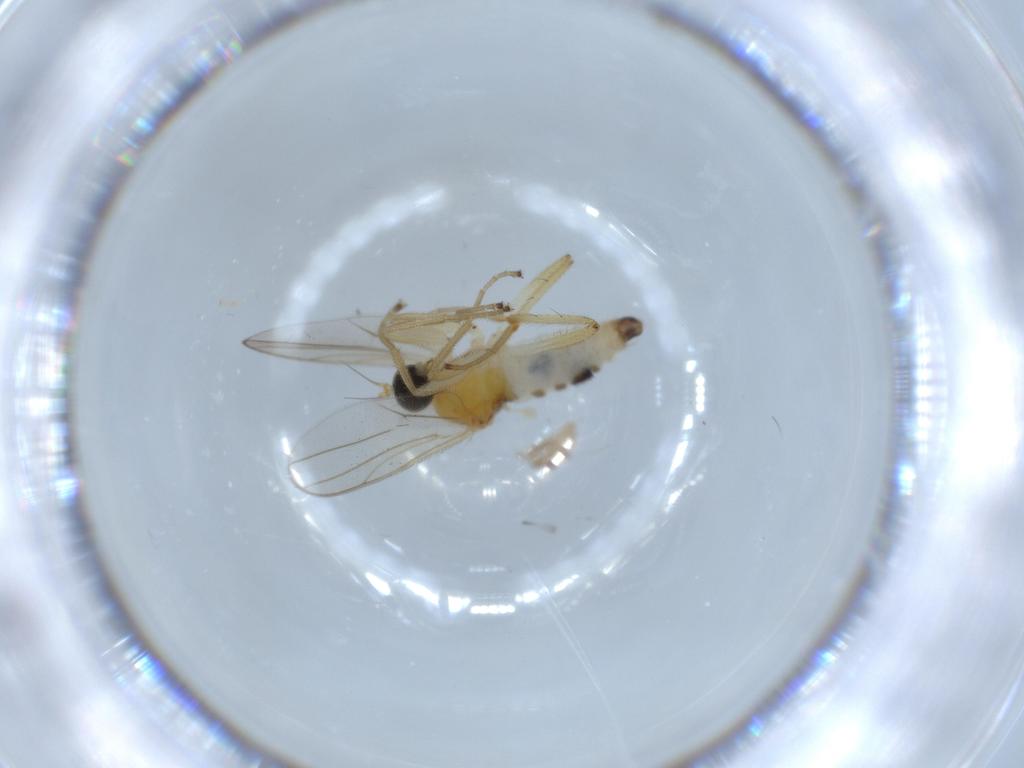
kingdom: Animalia
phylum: Arthropoda
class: Insecta
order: Diptera
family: Hybotidae
